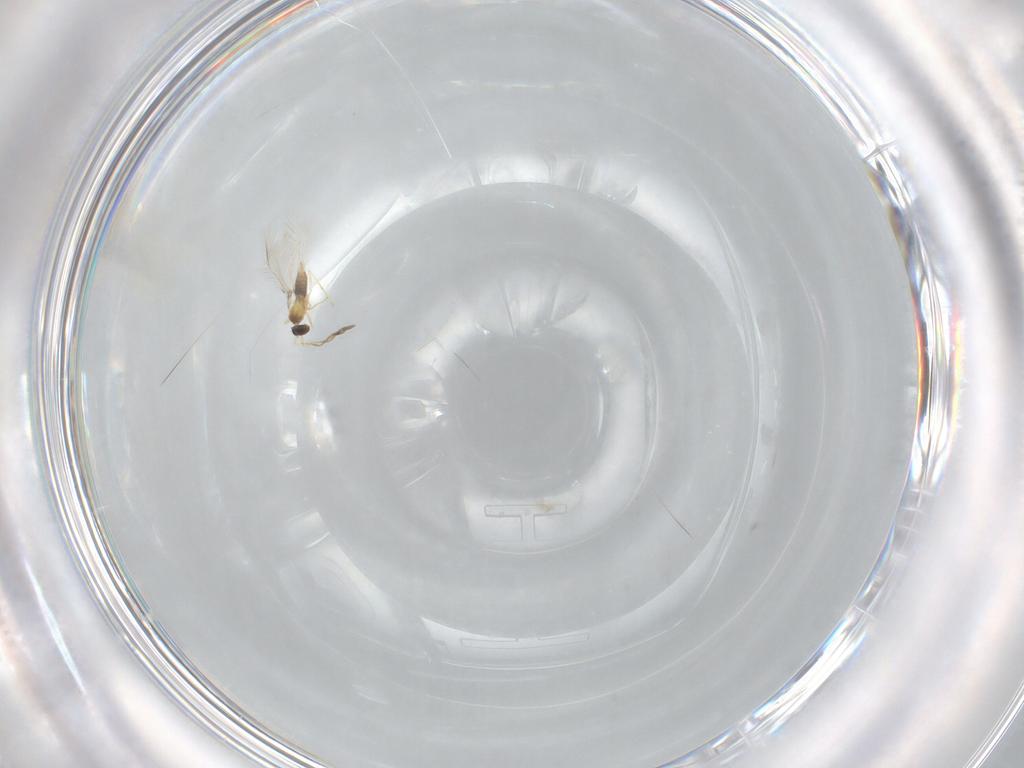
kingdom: Animalia
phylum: Arthropoda
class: Insecta
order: Hymenoptera
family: Mymaridae
